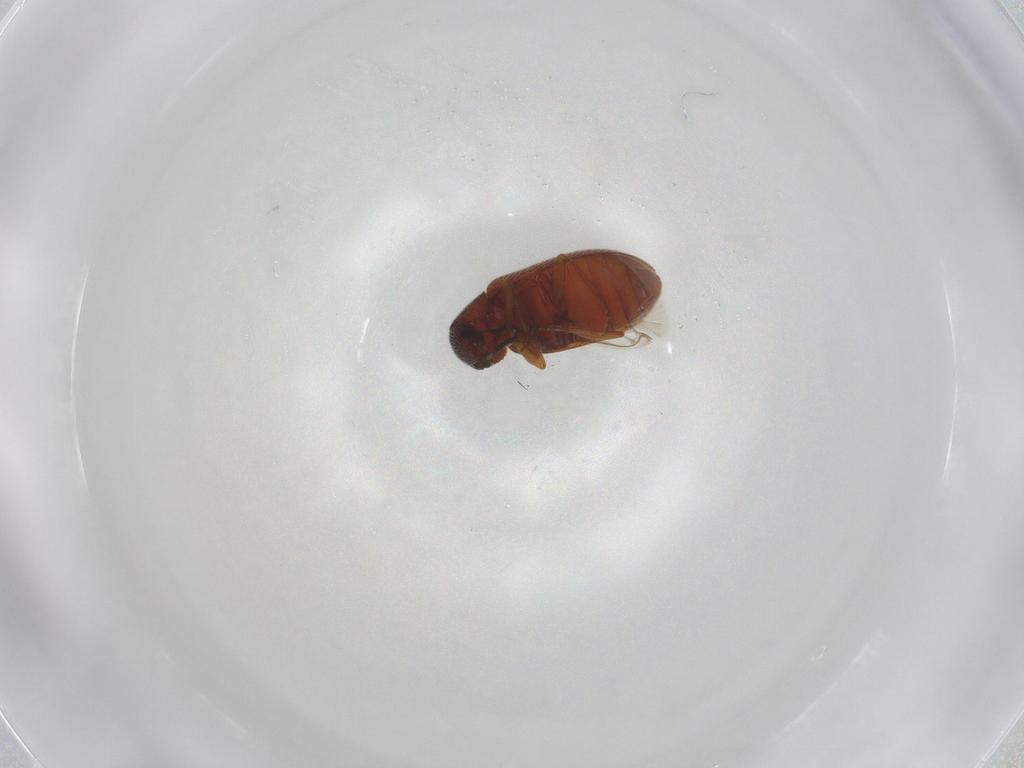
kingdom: Animalia
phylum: Arthropoda
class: Insecta
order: Coleoptera
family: Rhadalidae
